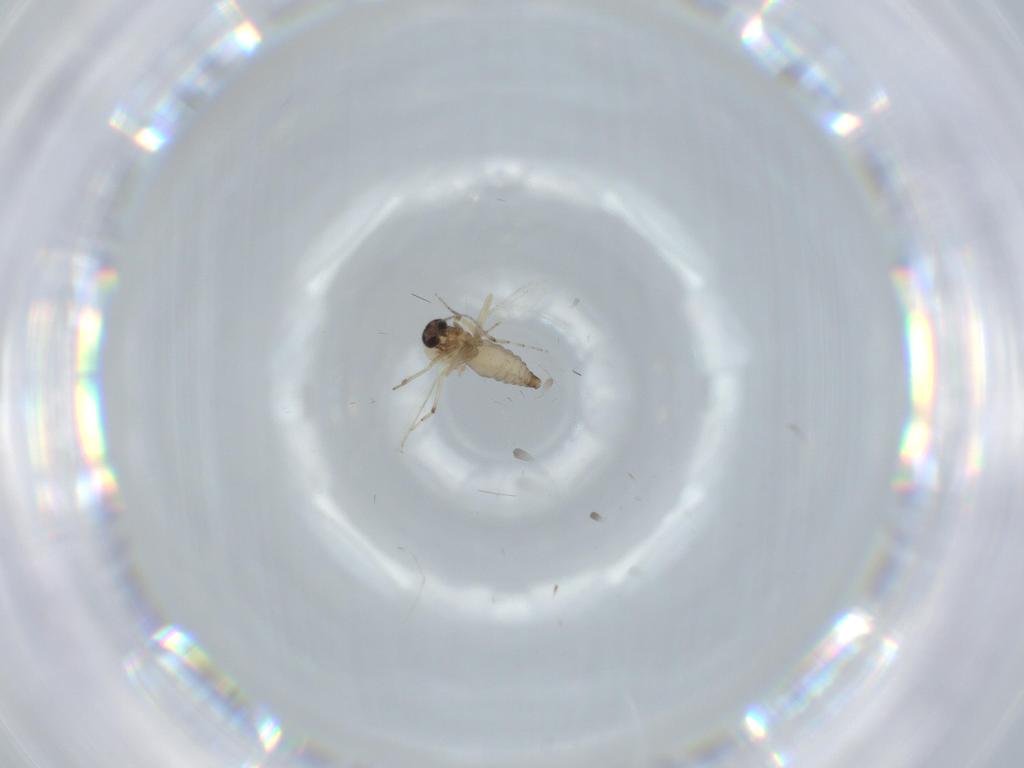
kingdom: Animalia
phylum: Arthropoda
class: Insecta
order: Diptera
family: Ceratopogonidae
